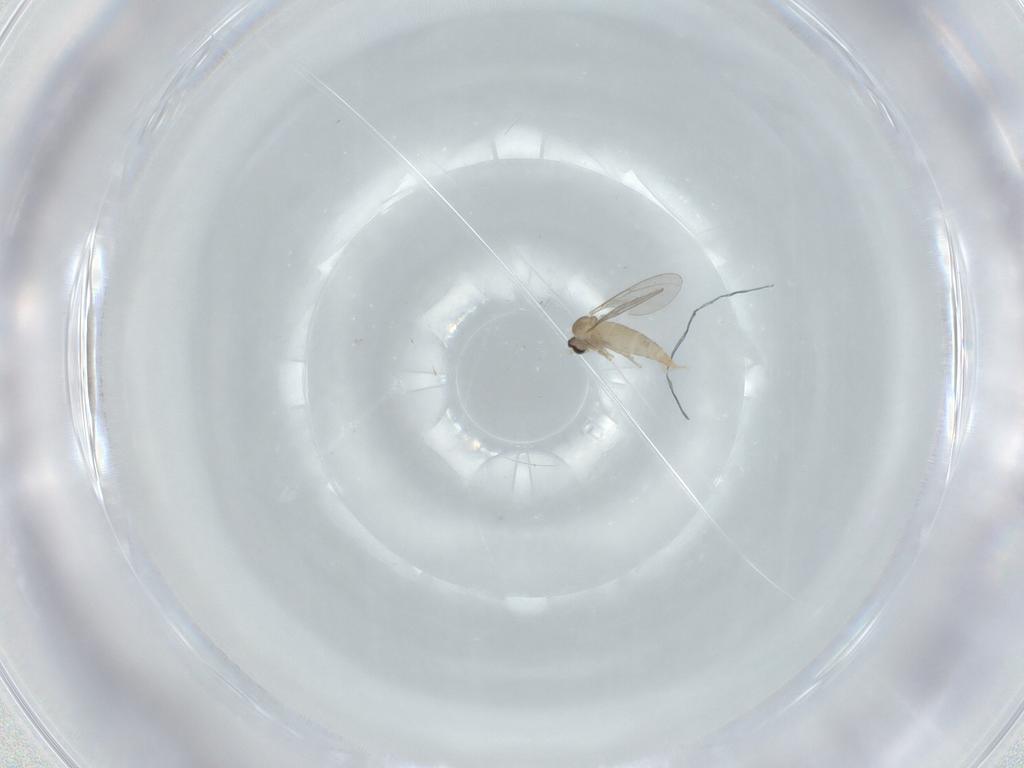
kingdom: Animalia
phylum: Arthropoda
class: Insecta
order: Diptera
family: Cecidomyiidae
